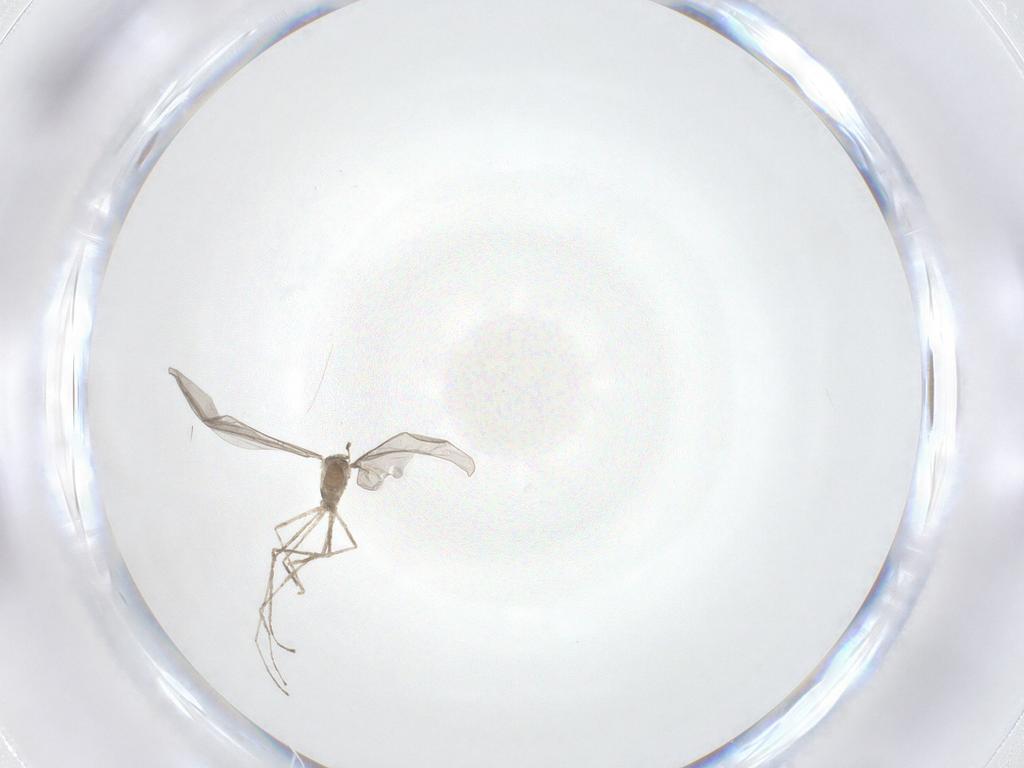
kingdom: Animalia
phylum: Arthropoda
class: Insecta
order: Diptera
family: Cecidomyiidae
